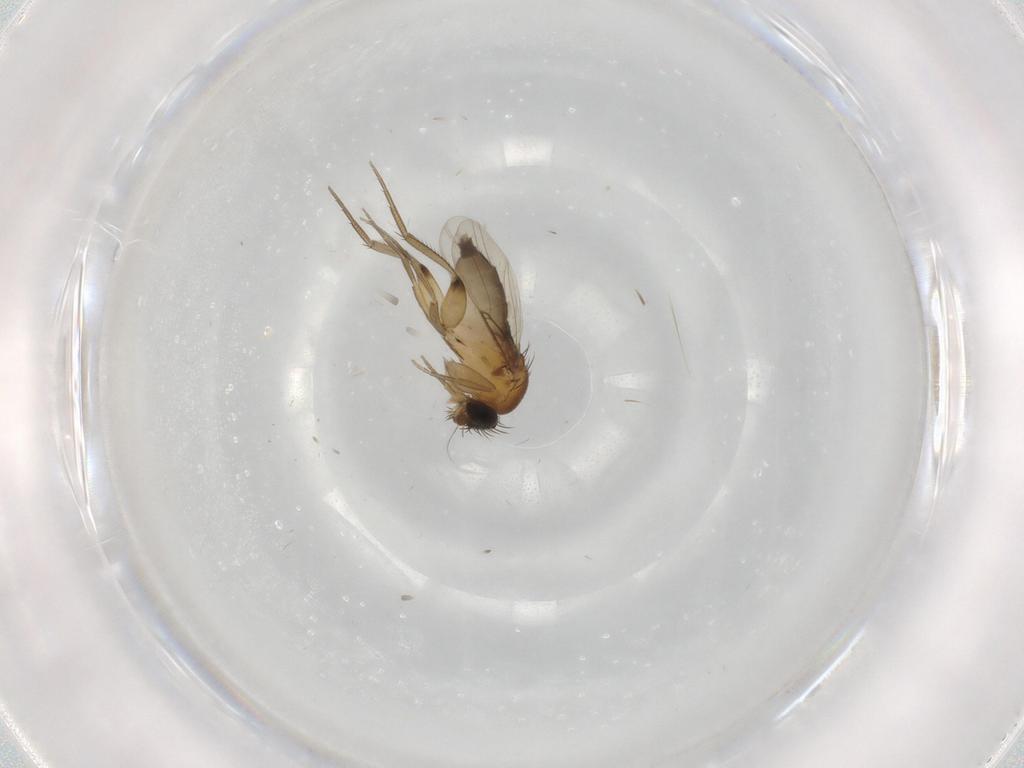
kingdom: Animalia
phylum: Arthropoda
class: Insecta
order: Diptera
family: Phoridae
